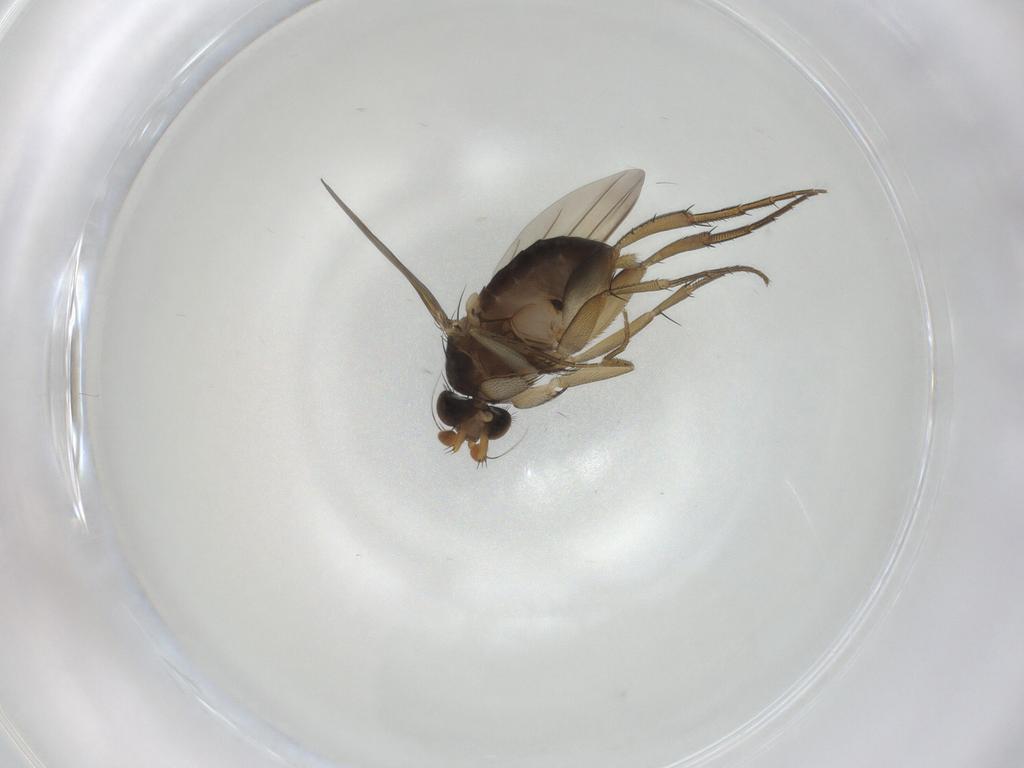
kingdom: Animalia
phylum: Arthropoda
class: Insecta
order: Diptera
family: Phoridae
